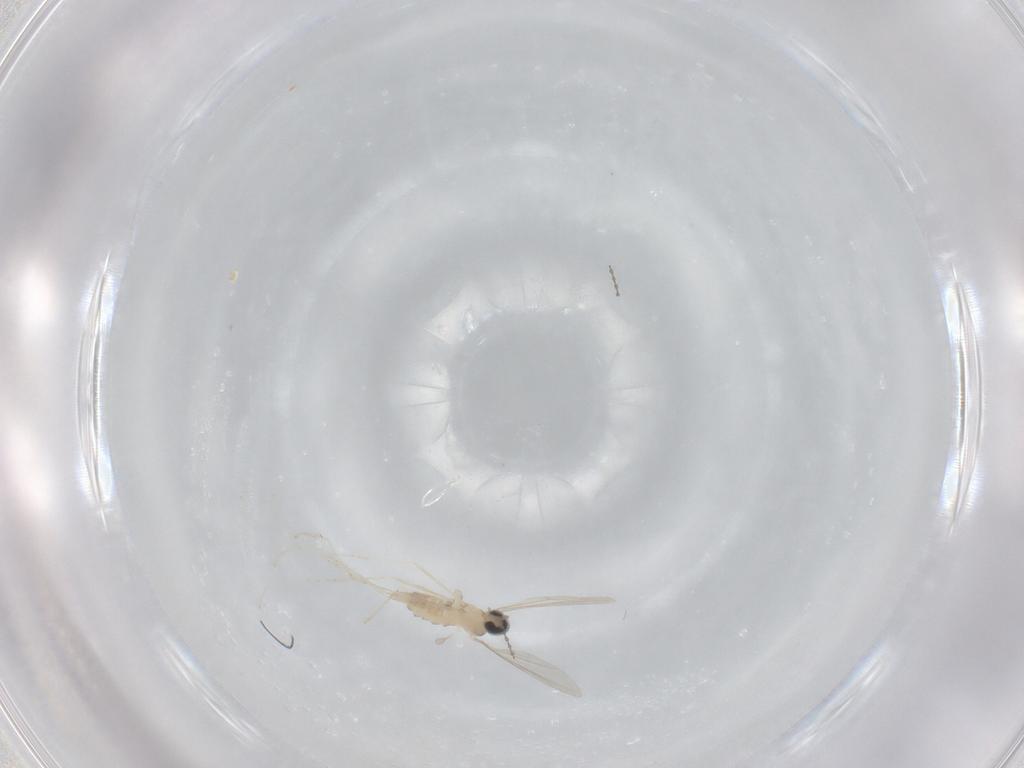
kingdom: Animalia
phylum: Arthropoda
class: Insecta
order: Diptera
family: Cecidomyiidae
